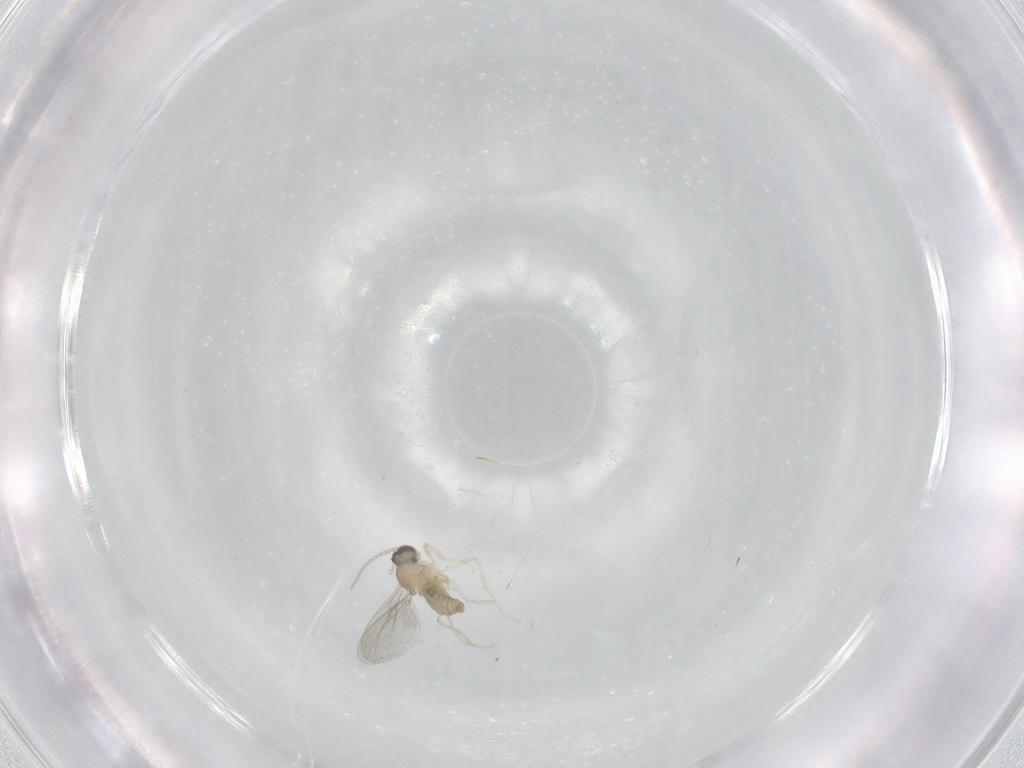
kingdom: Animalia
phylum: Arthropoda
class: Insecta
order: Diptera
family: Cecidomyiidae
